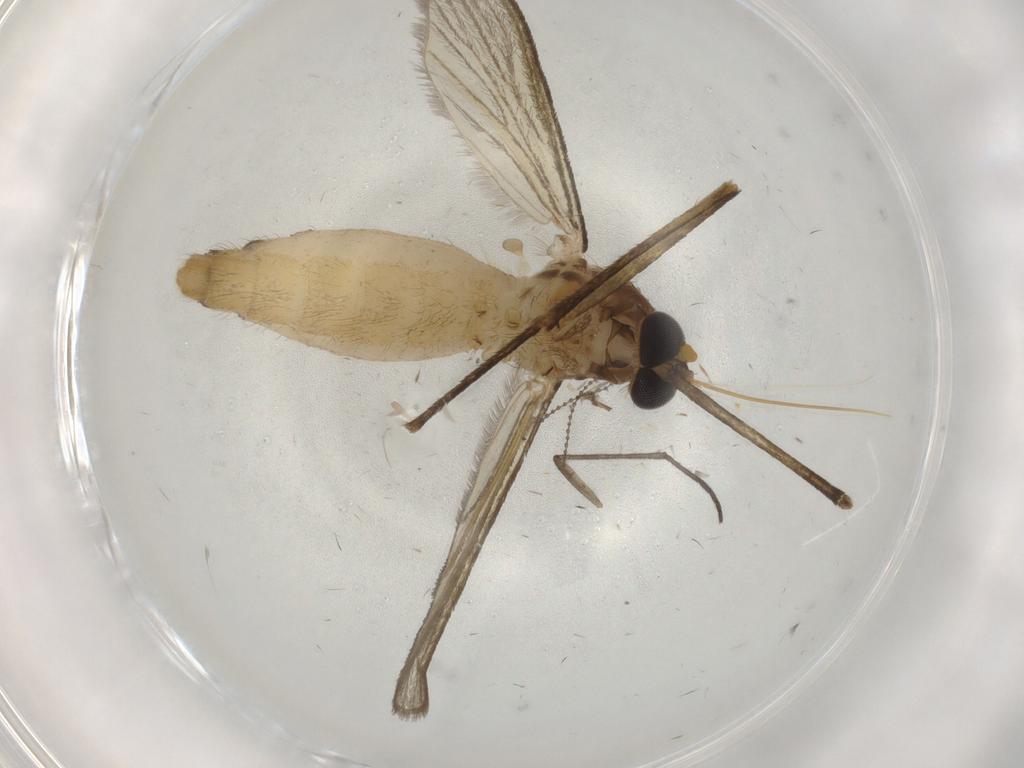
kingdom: Animalia
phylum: Arthropoda
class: Insecta
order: Diptera
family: Culicidae
